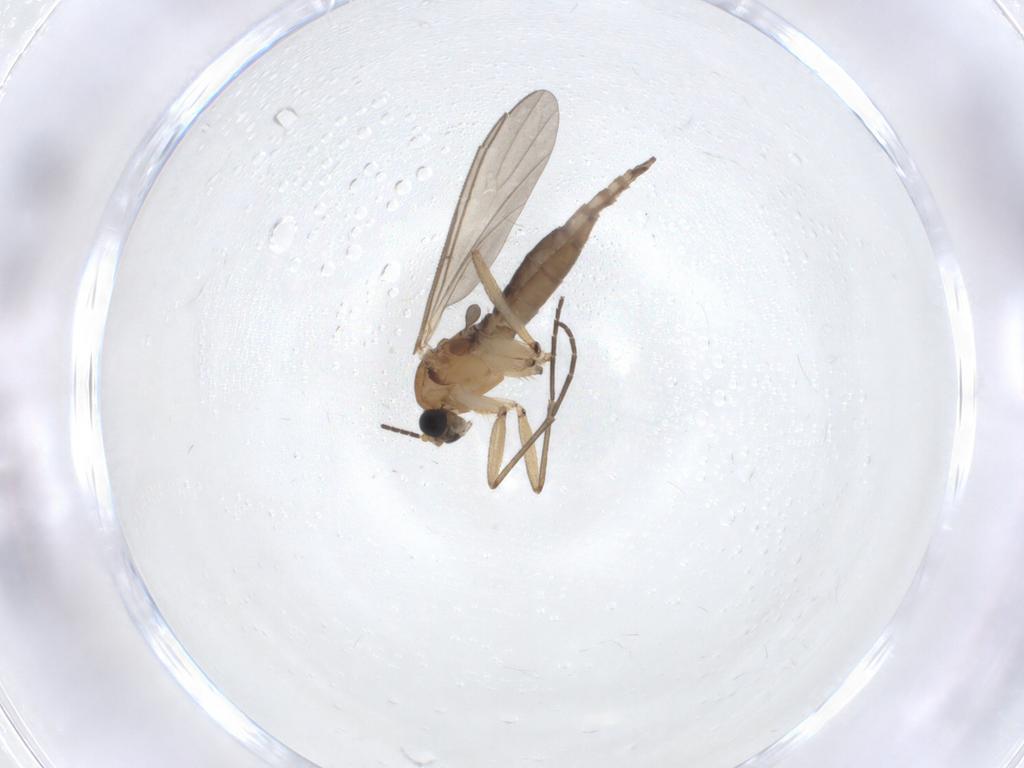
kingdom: Animalia
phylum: Arthropoda
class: Insecta
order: Diptera
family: Sciaridae
